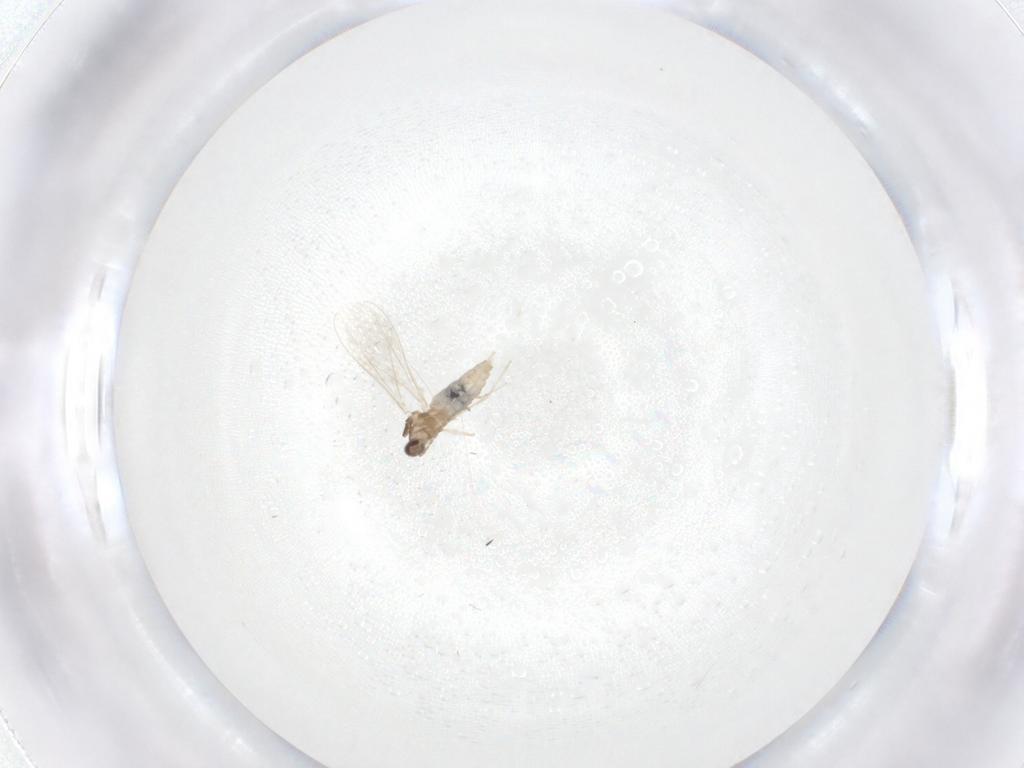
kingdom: Animalia
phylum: Arthropoda
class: Insecta
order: Diptera
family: Cecidomyiidae
